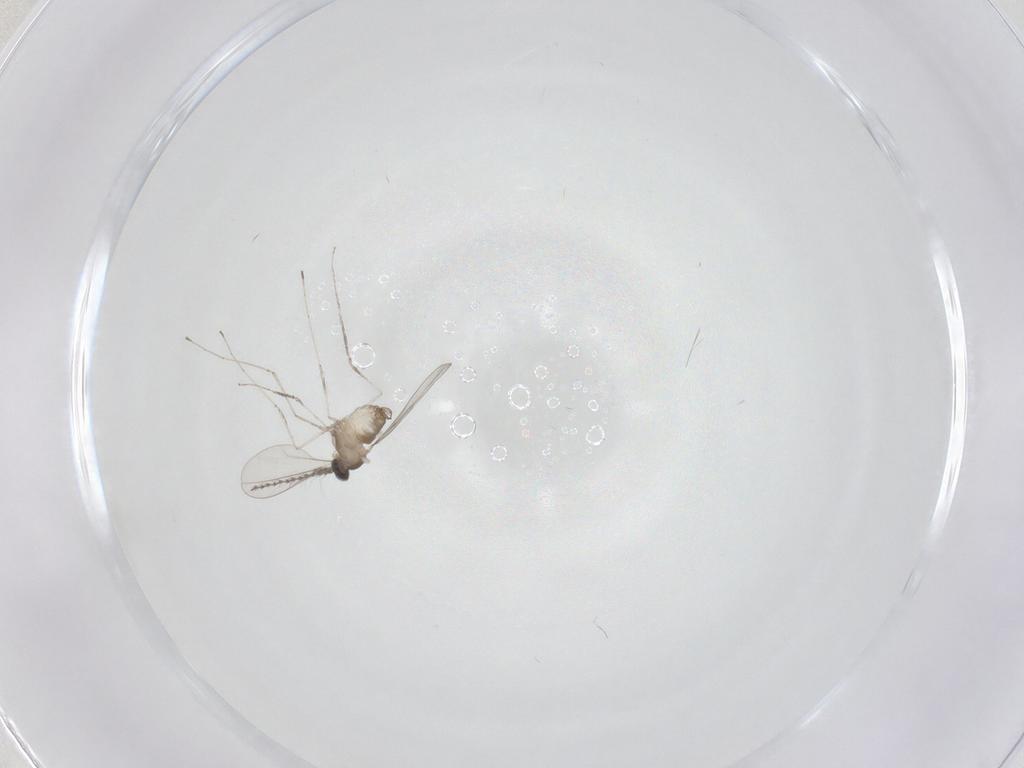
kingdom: Animalia
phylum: Arthropoda
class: Insecta
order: Diptera
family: Cecidomyiidae
